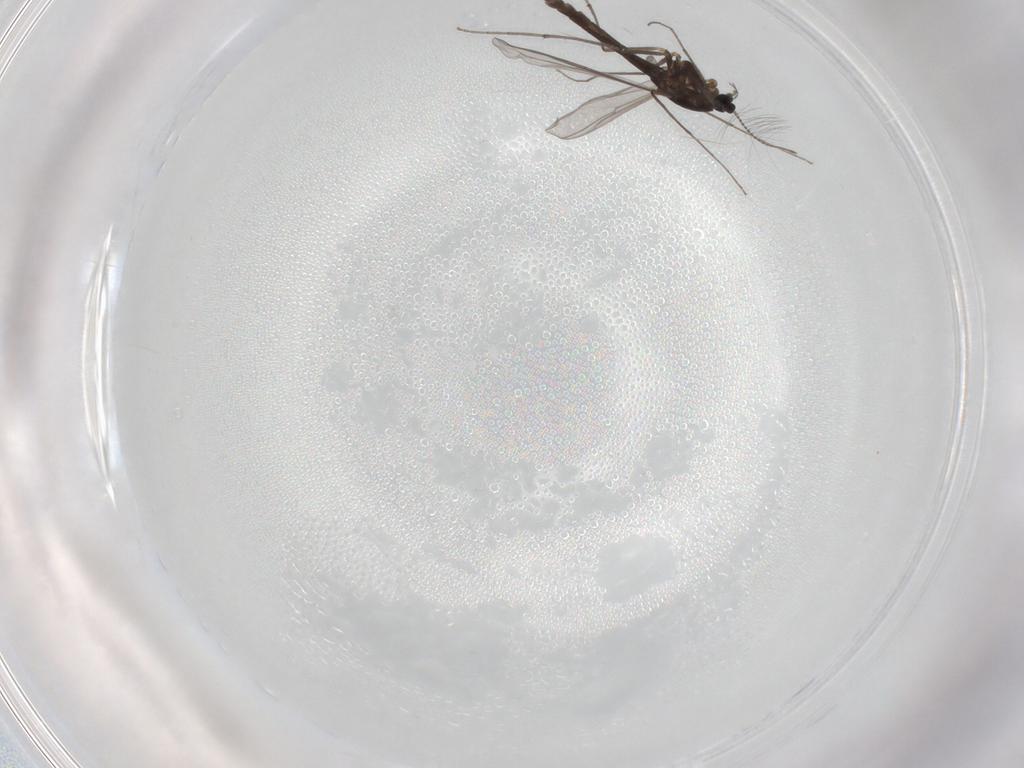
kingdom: Animalia
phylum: Arthropoda
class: Insecta
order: Diptera
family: Chironomidae
